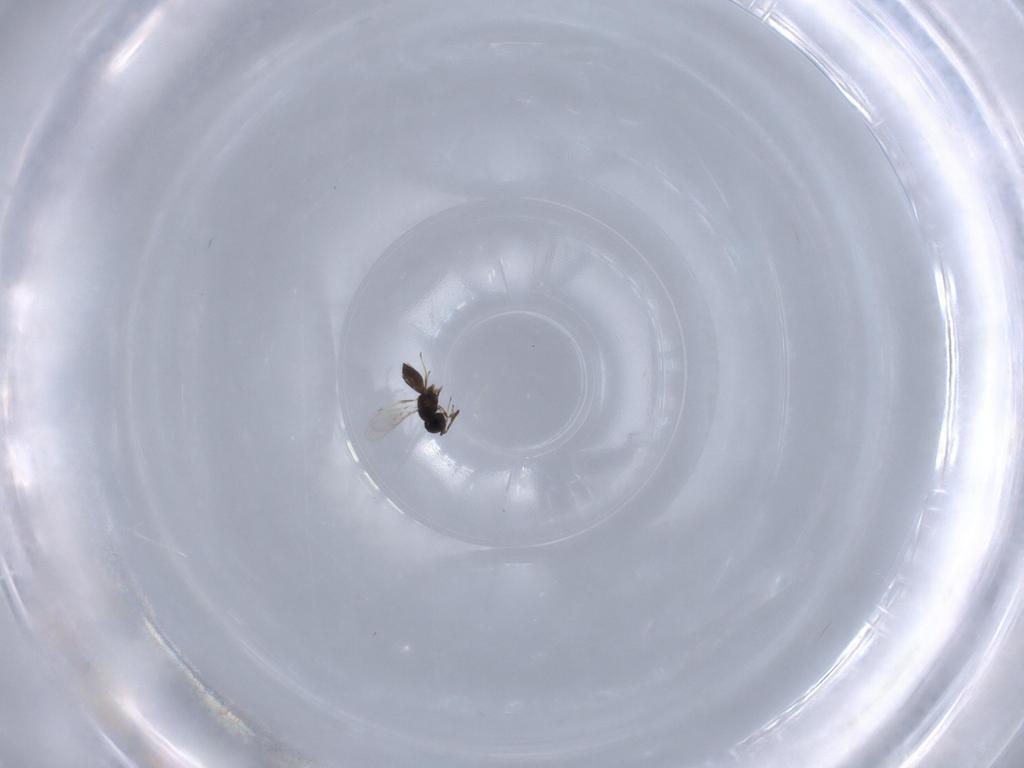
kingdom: Animalia
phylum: Arthropoda
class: Insecta
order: Hymenoptera
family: Scelionidae
